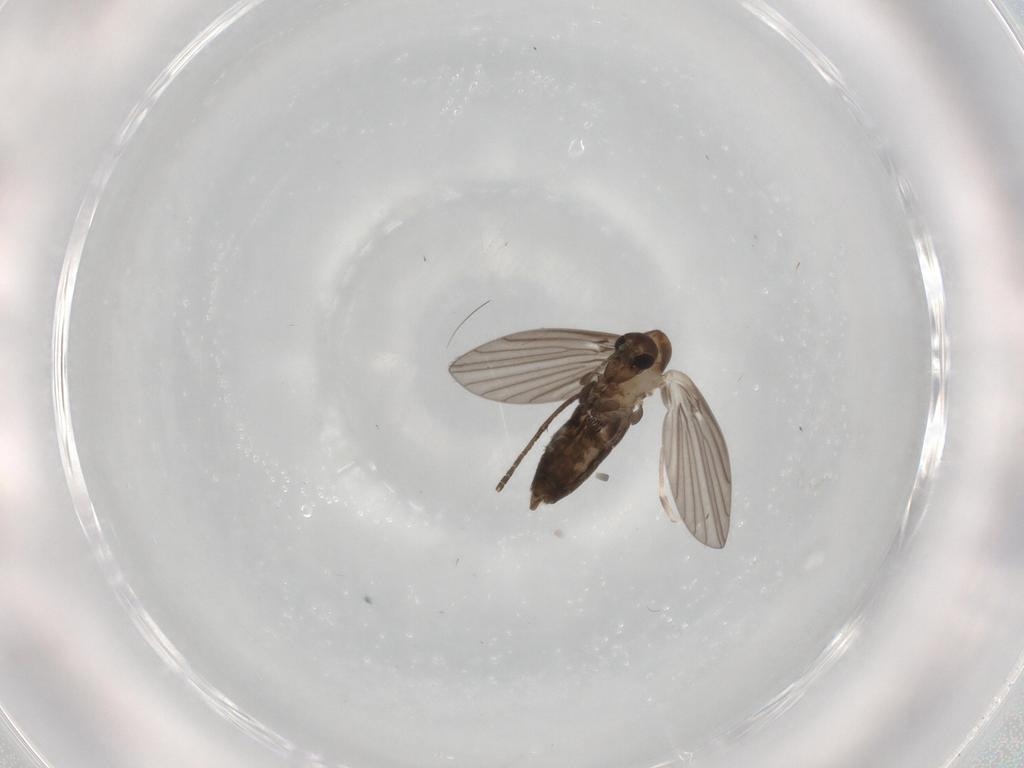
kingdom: Animalia
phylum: Arthropoda
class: Insecta
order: Diptera
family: Psychodidae
